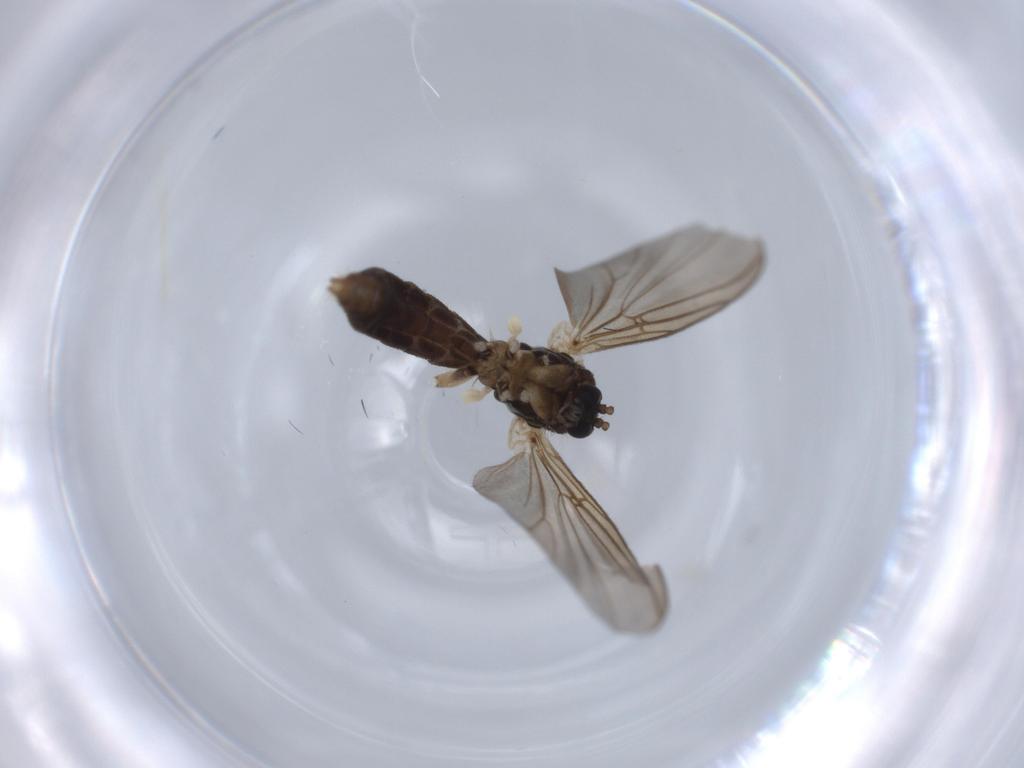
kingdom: Animalia
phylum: Arthropoda
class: Insecta
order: Diptera
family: Mycetophilidae
